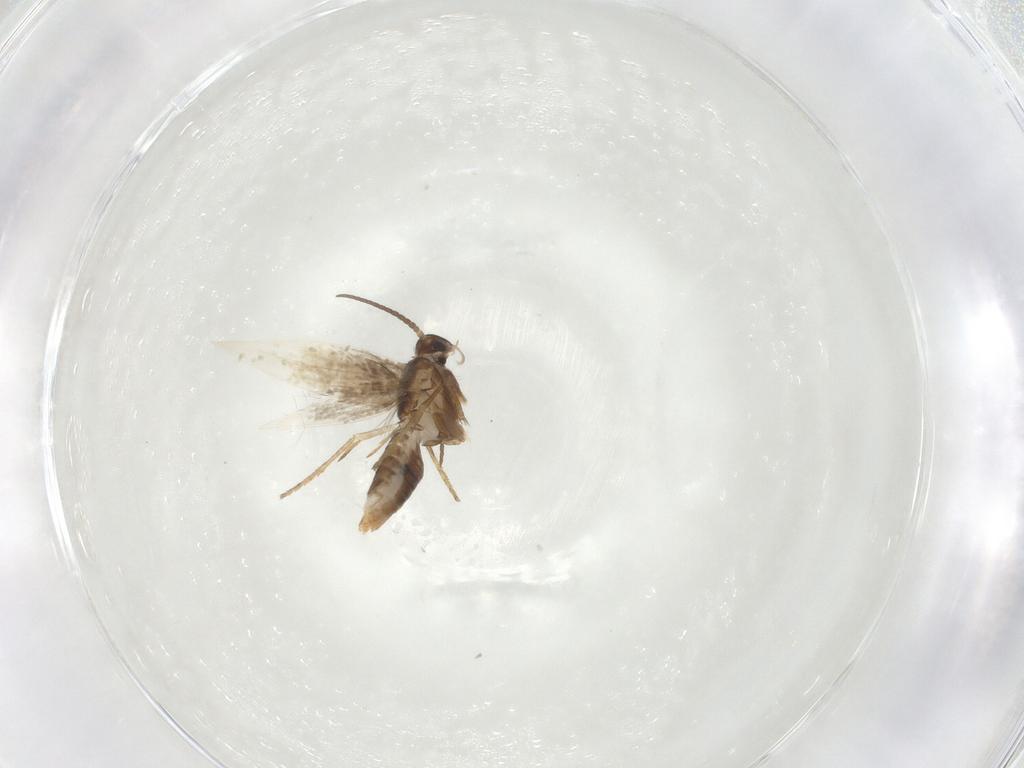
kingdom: Animalia
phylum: Arthropoda
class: Insecta
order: Lepidoptera
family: Heliozelidae
